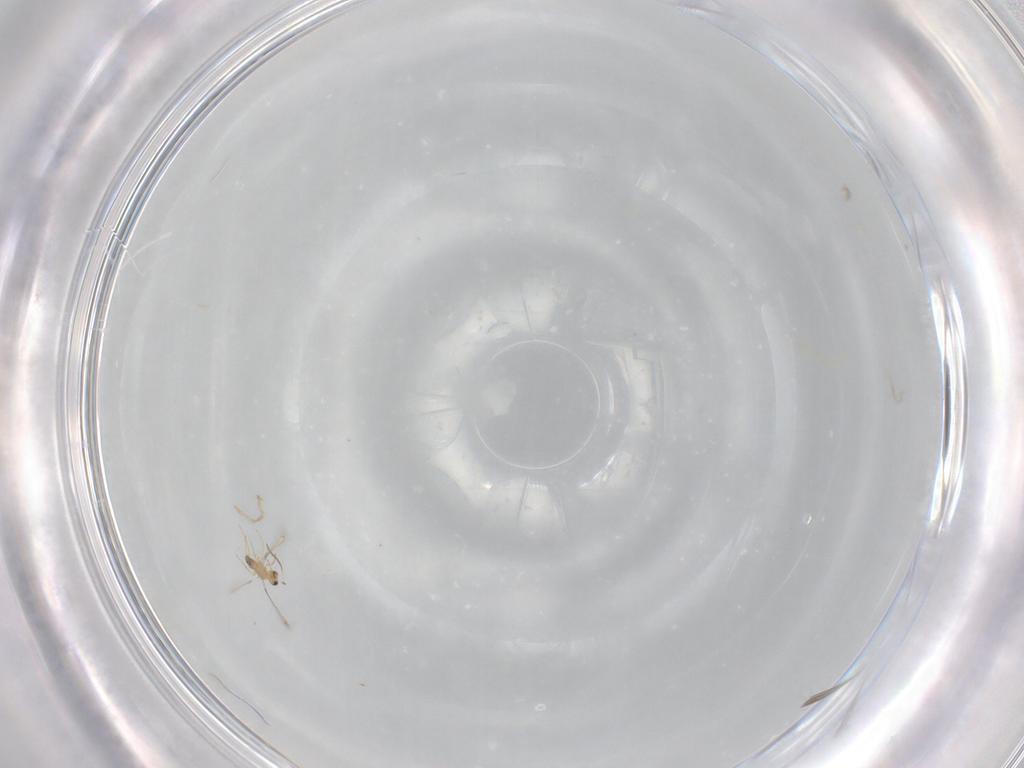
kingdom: Animalia
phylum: Arthropoda
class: Insecta
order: Hymenoptera
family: Mymaridae
